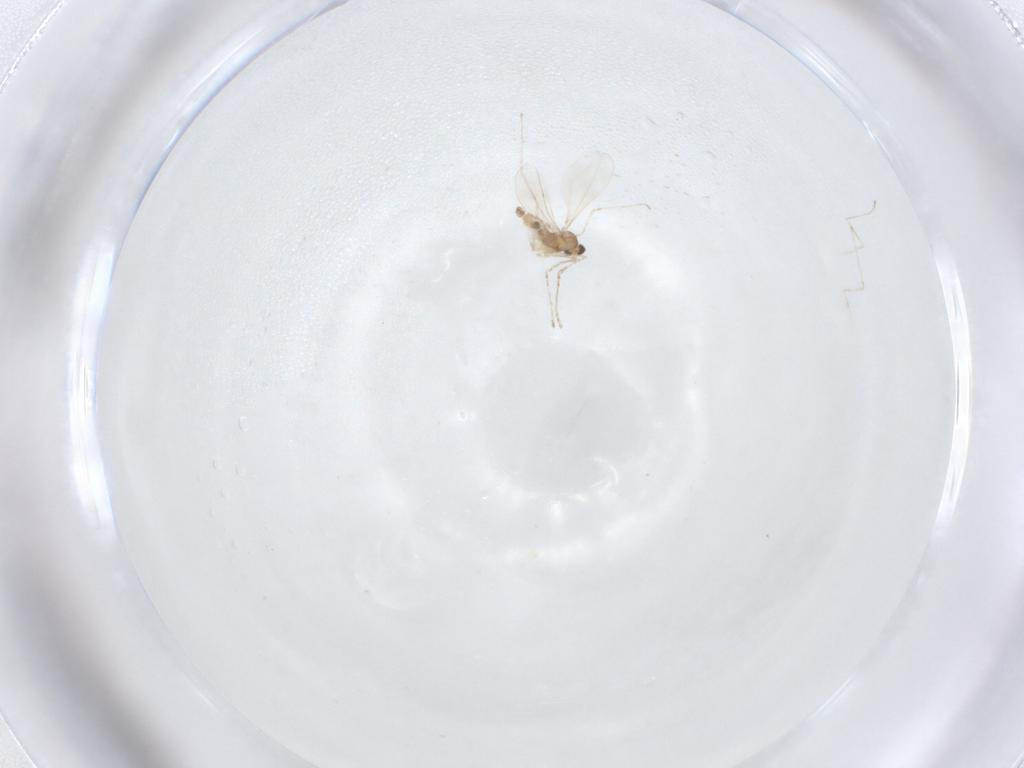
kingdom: Animalia
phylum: Arthropoda
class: Insecta
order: Diptera
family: Cecidomyiidae
